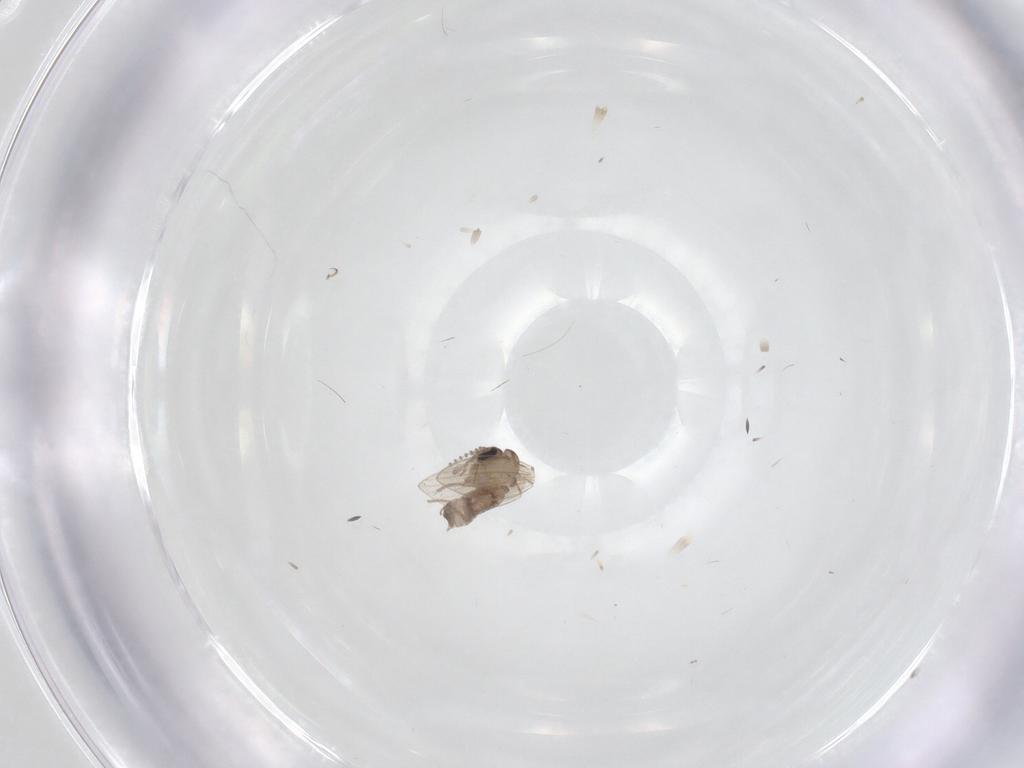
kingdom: Animalia
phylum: Arthropoda
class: Insecta
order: Diptera
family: Psychodidae
